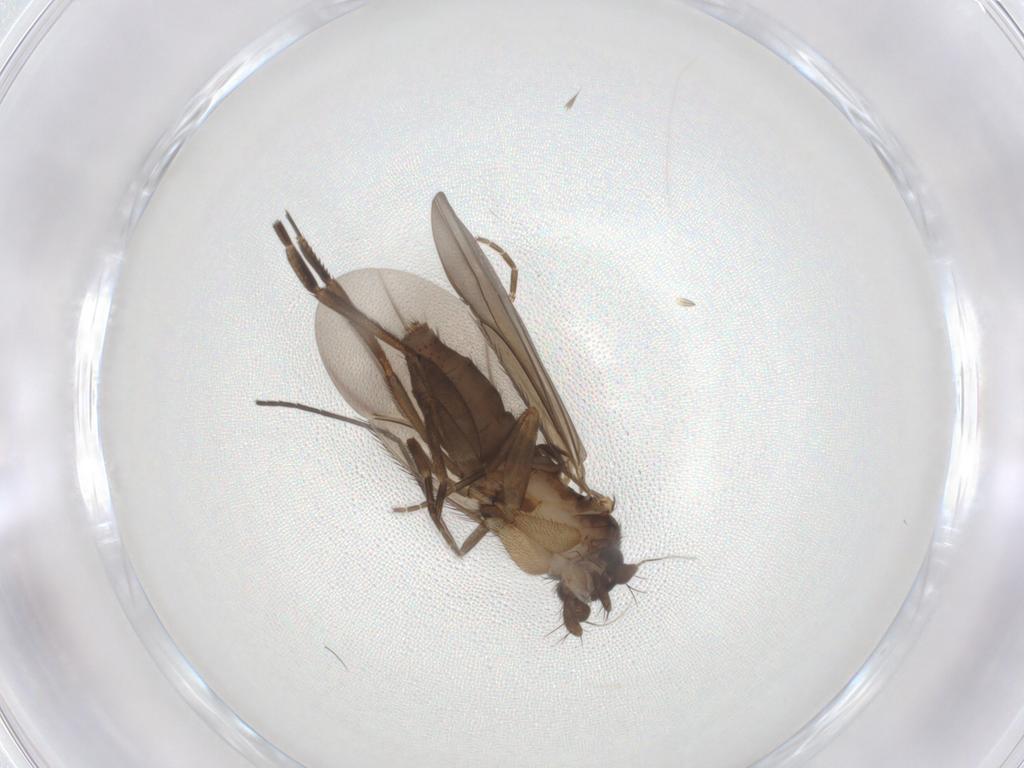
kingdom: Animalia
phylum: Arthropoda
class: Insecta
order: Diptera
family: Phoridae
